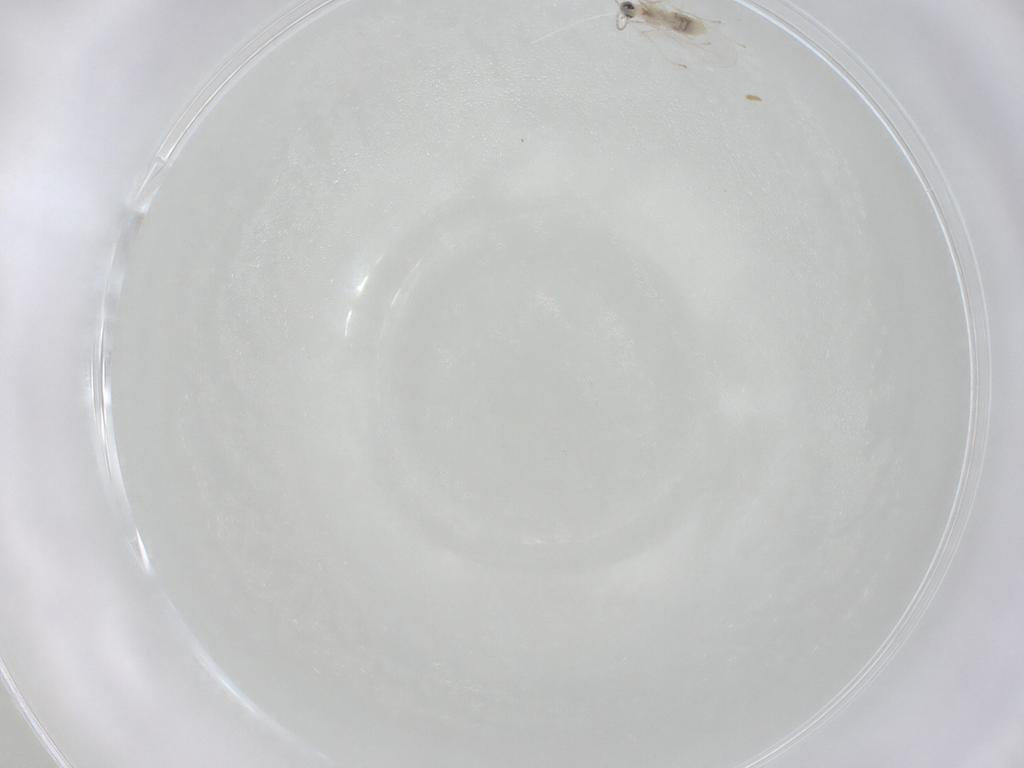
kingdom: Animalia
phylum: Arthropoda
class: Insecta
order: Diptera
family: Cecidomyiidae
